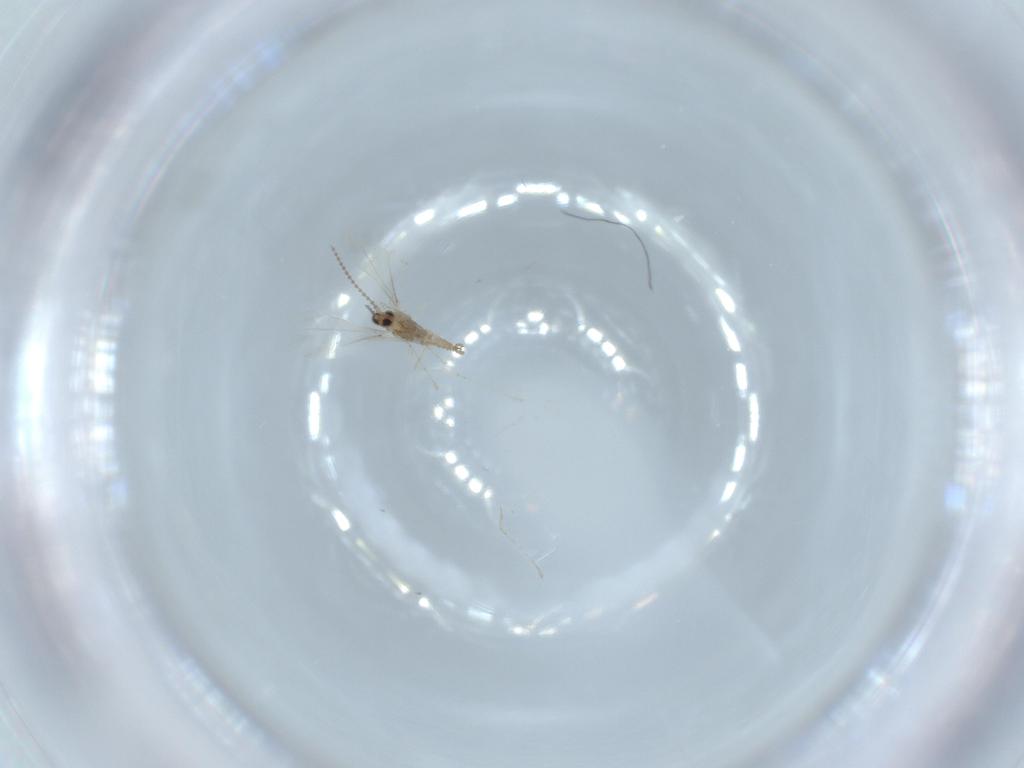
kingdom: Animalia
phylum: Arthropoda
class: Insecta
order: Diptera
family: Cecidomyiidae
